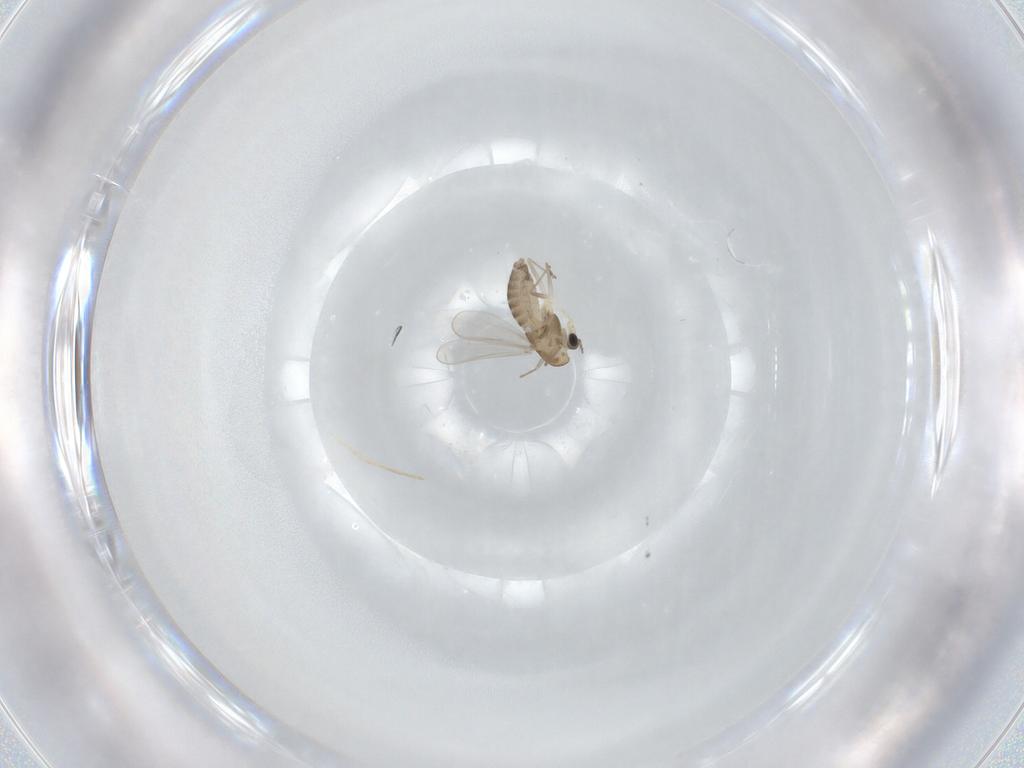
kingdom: Animalia
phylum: Arthropoda
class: Insecta
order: Diptera
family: Chironomidae
